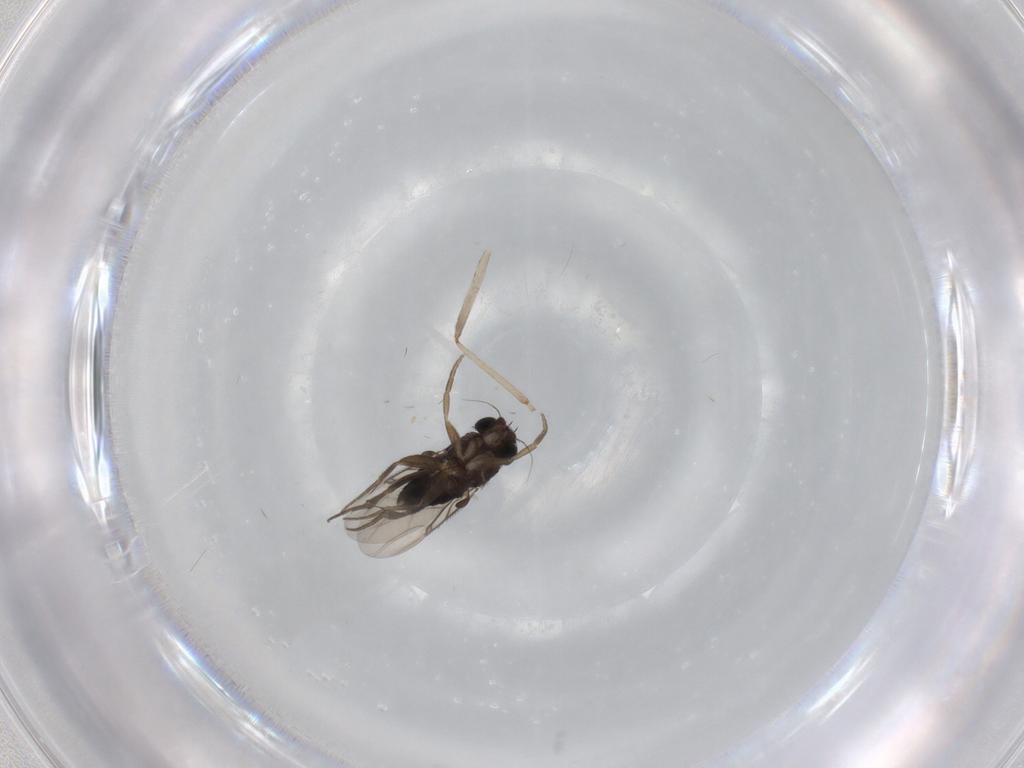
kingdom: Animalia
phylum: Arthropoda
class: Insecta
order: Diptera
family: Phoridae
